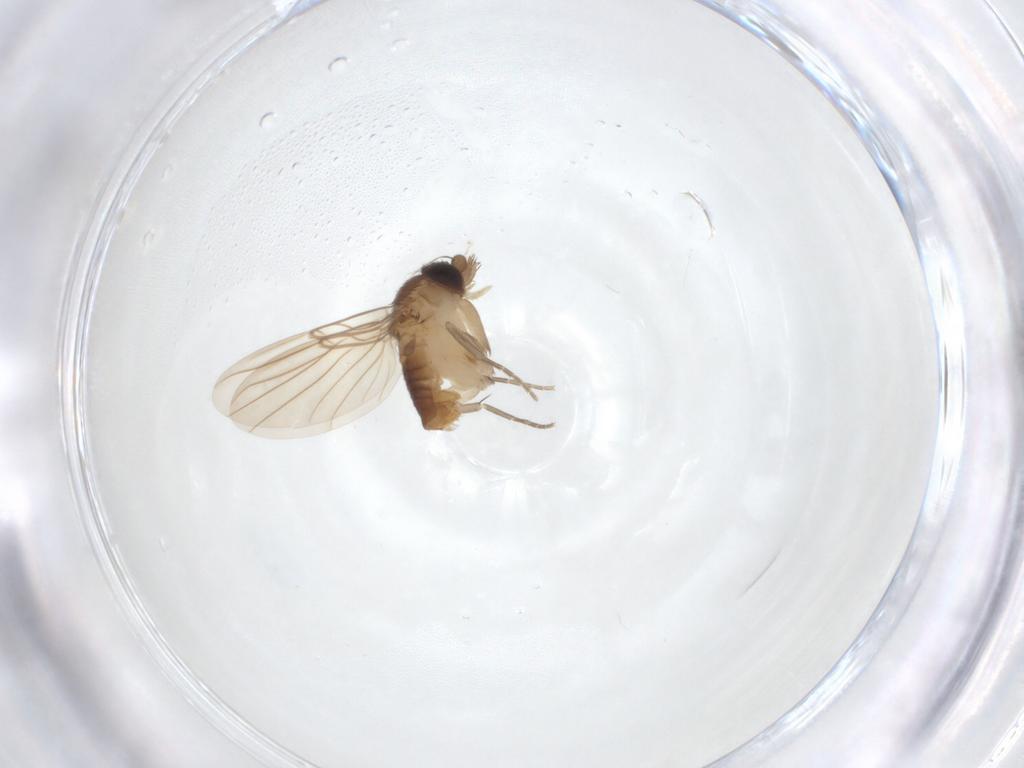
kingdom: Animalia
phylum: Arthropoda
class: Insecta
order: Diptera
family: Phoridae
